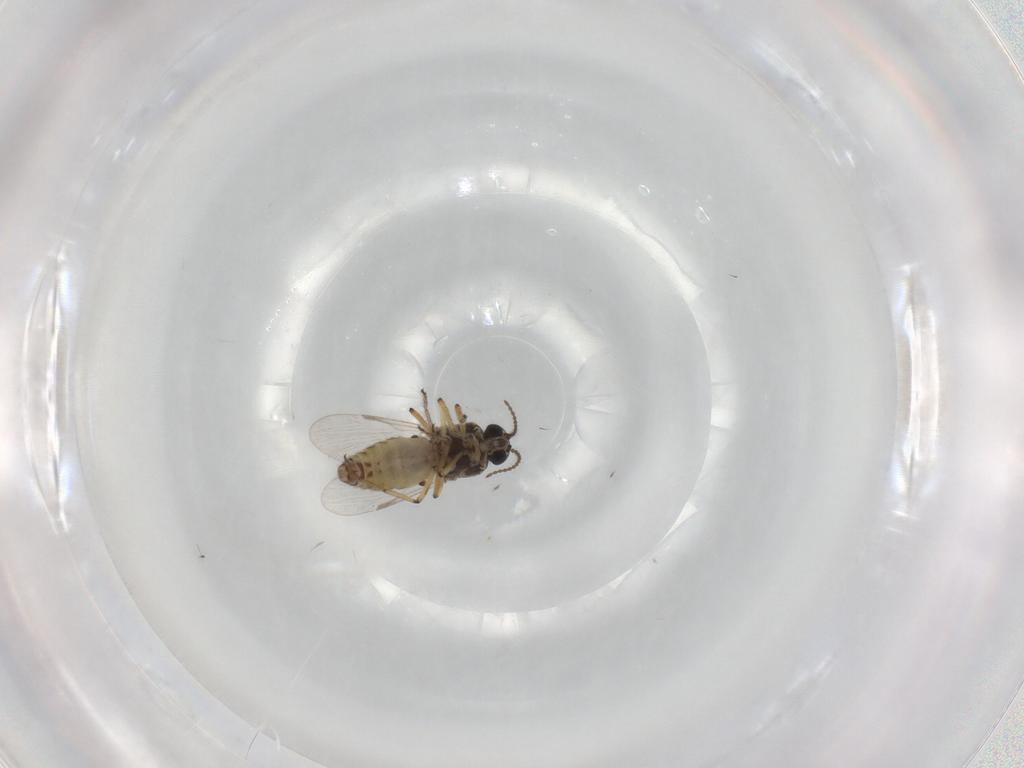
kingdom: Animalia
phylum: Arthropoda
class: Insecta
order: Diptera
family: Ceratopogonidae
